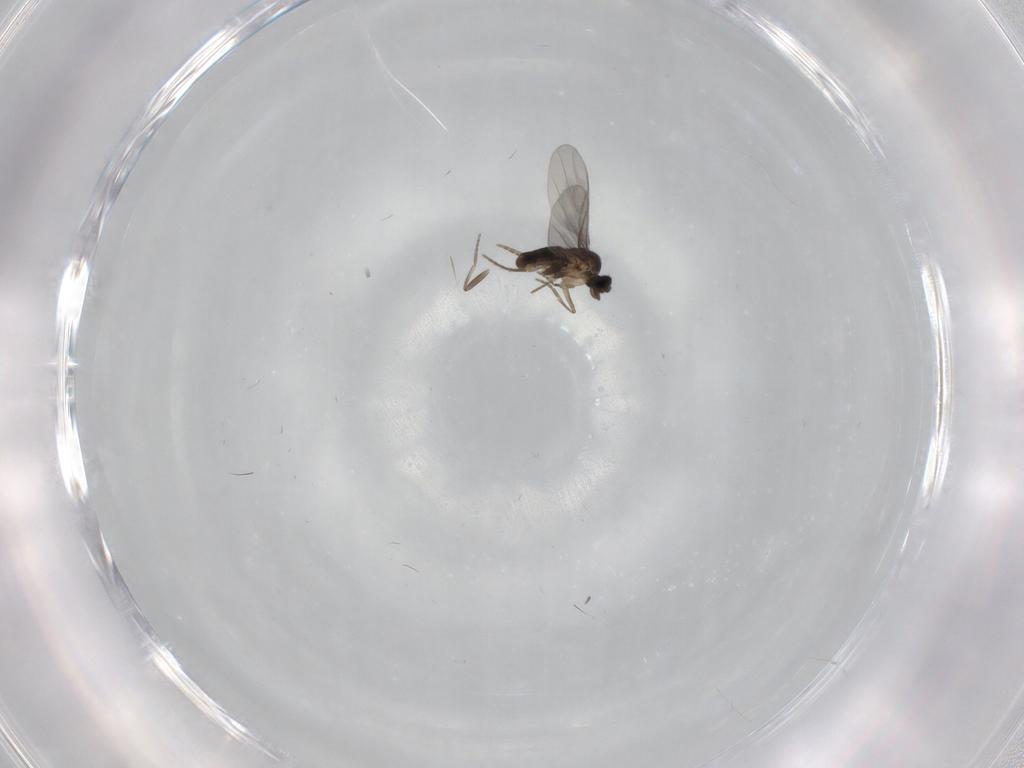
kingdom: Animalia
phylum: Arthropoda
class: Insecta
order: Diptera
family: Tabanidae
